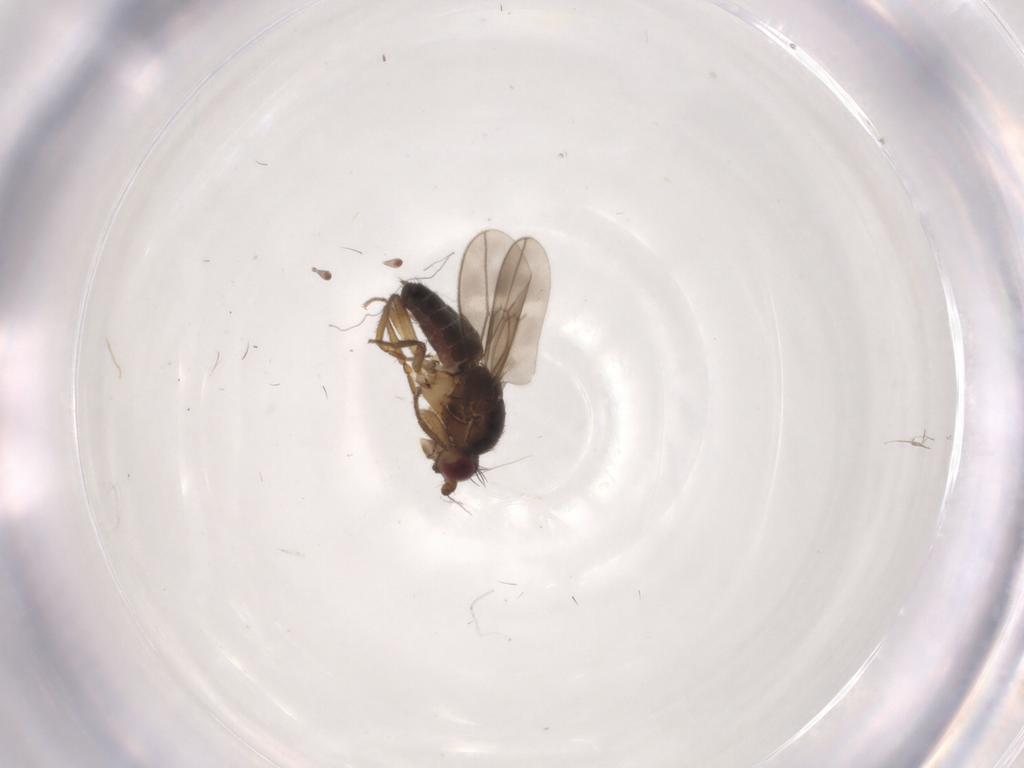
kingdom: Animalia
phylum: Arthropoda
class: Insecta
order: Diptera
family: Sphaeroceridae
